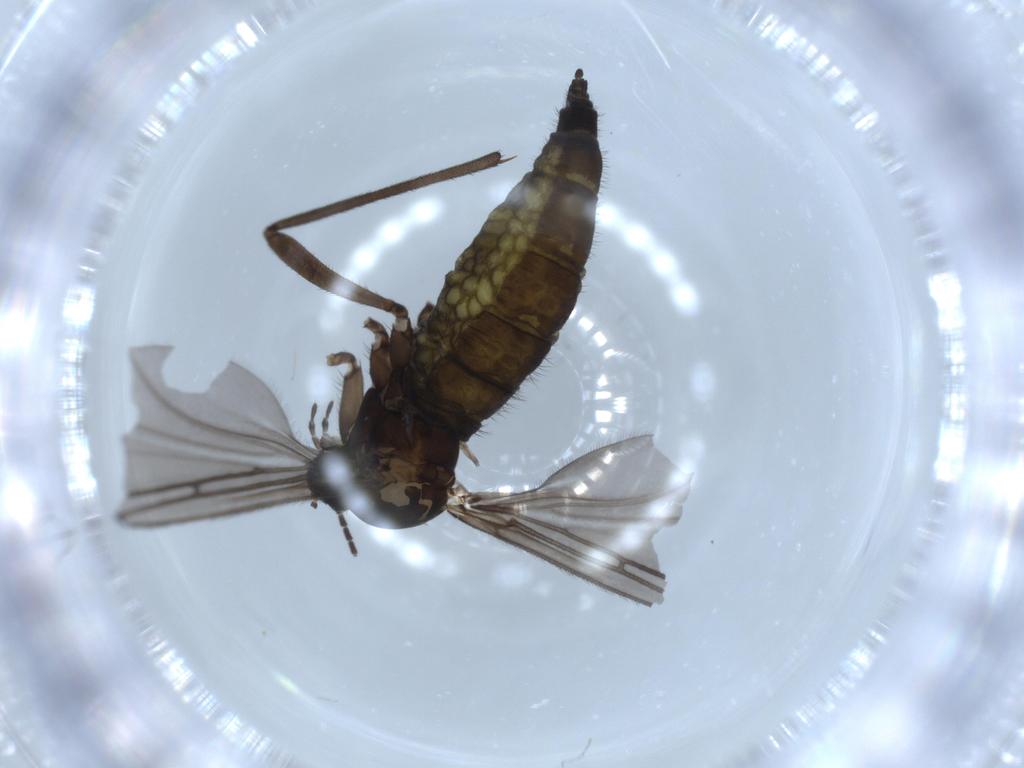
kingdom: Animalia
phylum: Arthropoda
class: Insecta
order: Diptera
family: Sciaridae
